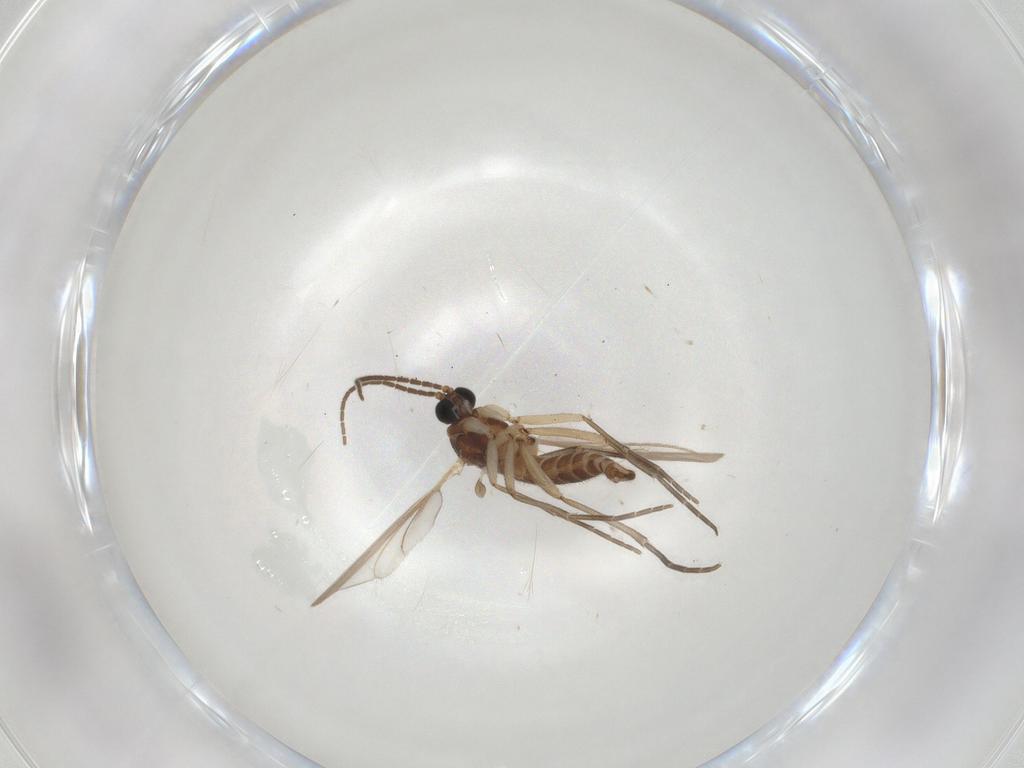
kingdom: Animalia
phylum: Arthropoda
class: Insecta
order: Diptera
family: Sciaridae
